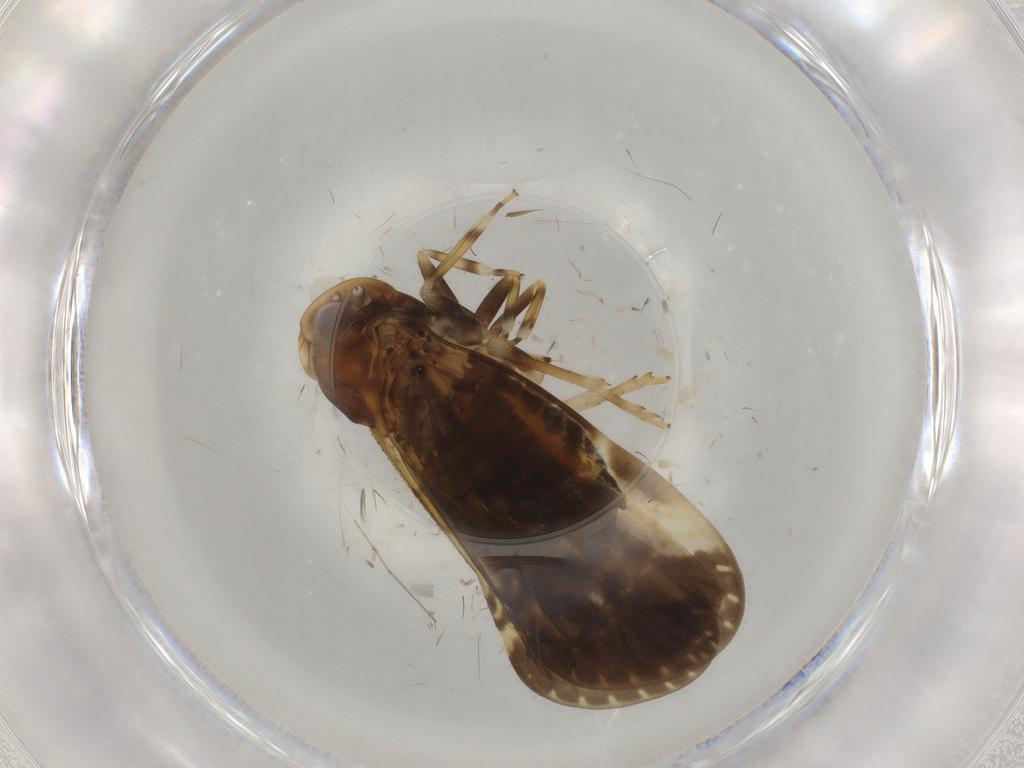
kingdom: Animalia
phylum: Arthropoda
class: Insecta
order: Hemiptera
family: Cixiidae
